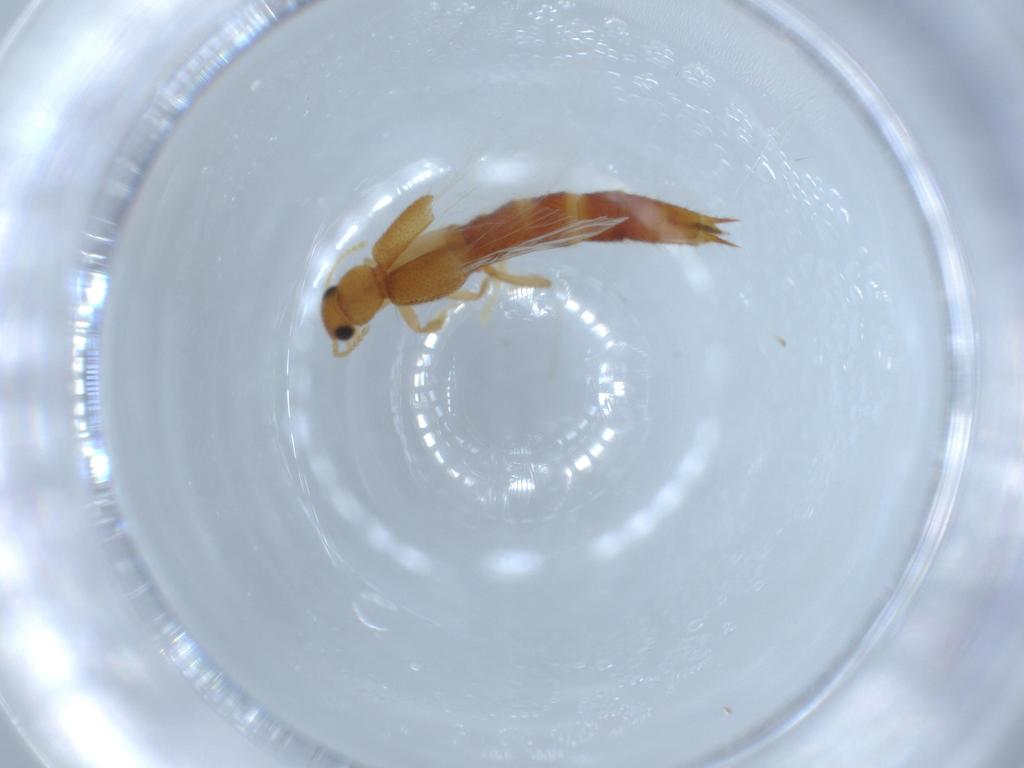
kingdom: Animalia
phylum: Arthropoda
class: Insecta
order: Coleoptera
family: Staphylinidae
